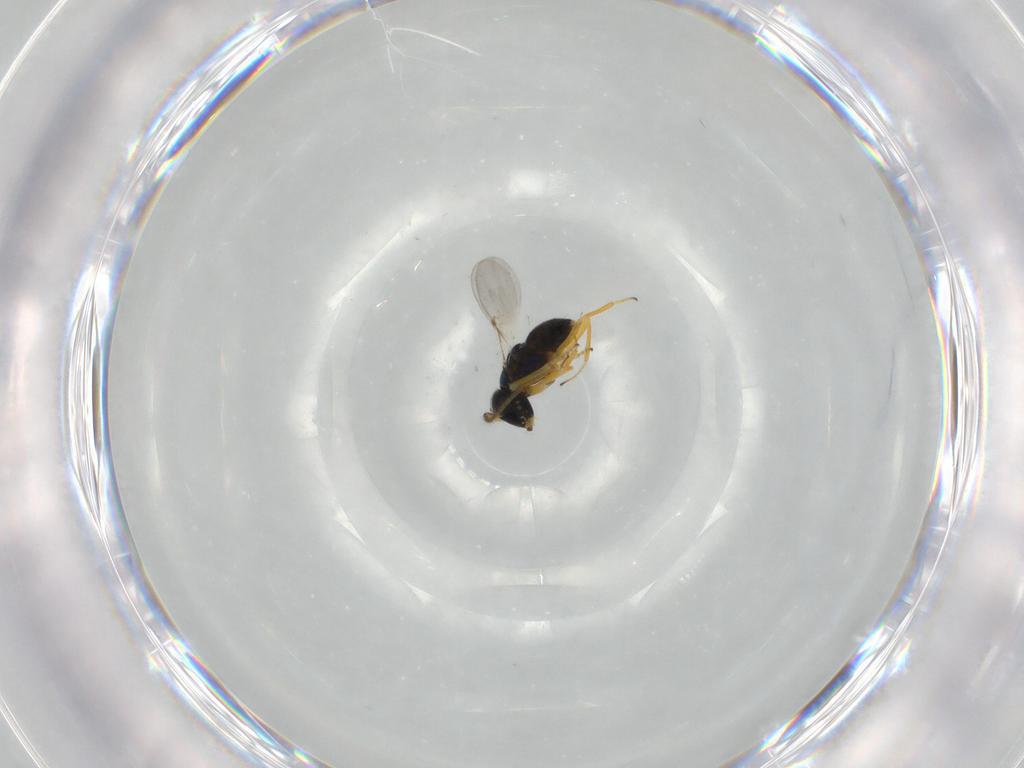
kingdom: Animalia
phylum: Arthropoda
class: Insecta
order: Hymenoptera
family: Encyrtidae
